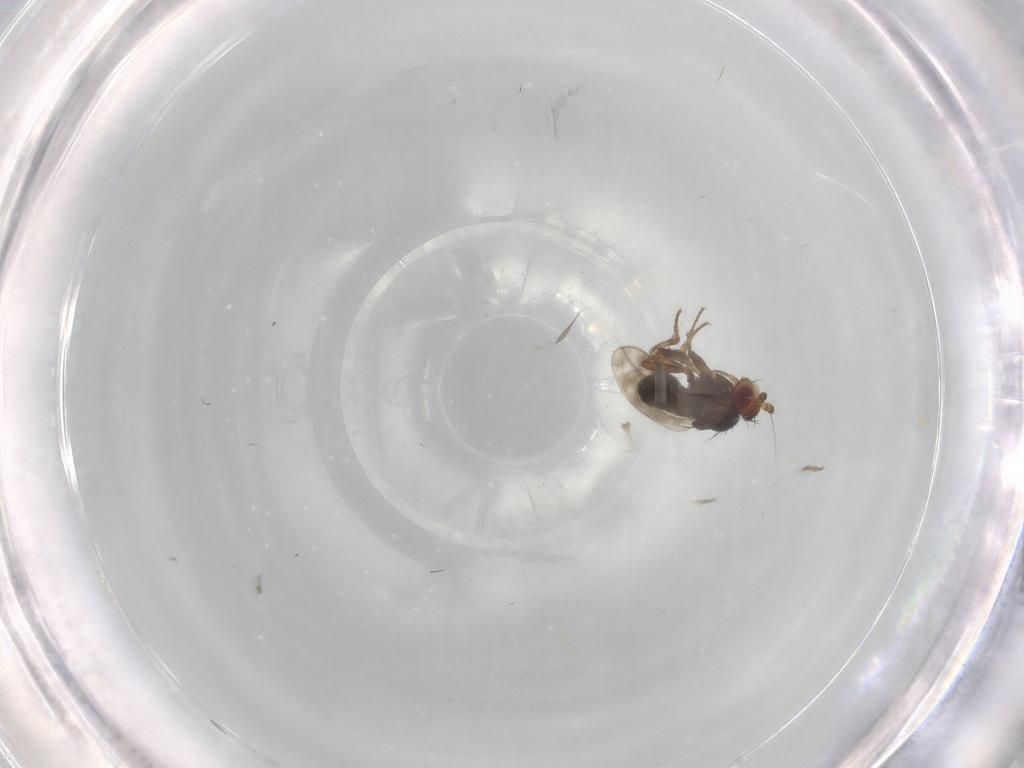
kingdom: Animalia
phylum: Arthropoda
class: Insecta
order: Diptera
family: Sphaeroceridae
